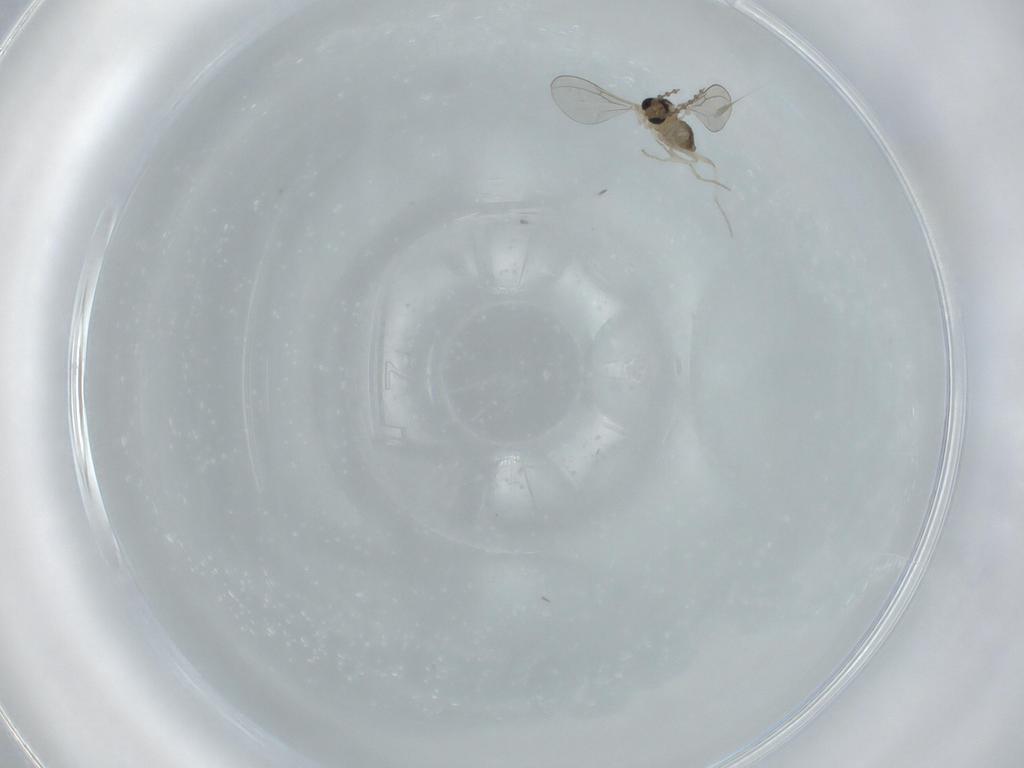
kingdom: Animalia
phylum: Arthropoda
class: Insecta
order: Diptera
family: Cecidomyiidae
